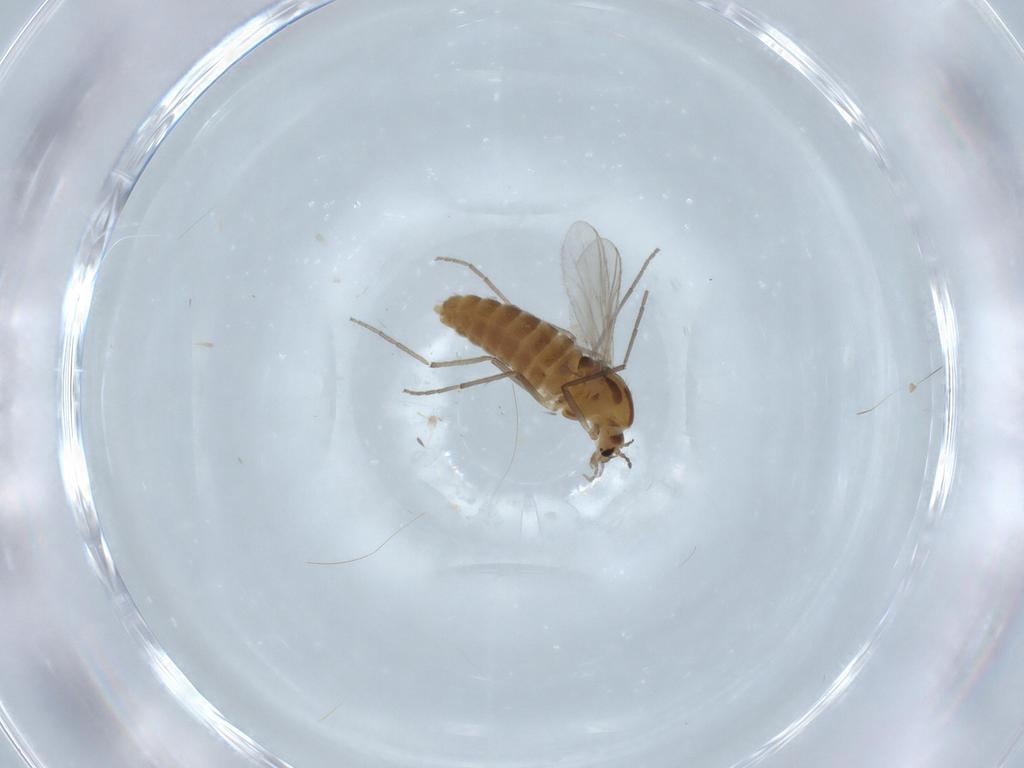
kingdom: Animalia
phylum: Arthropoda
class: Insecta
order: Diptera
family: Chironomidae
